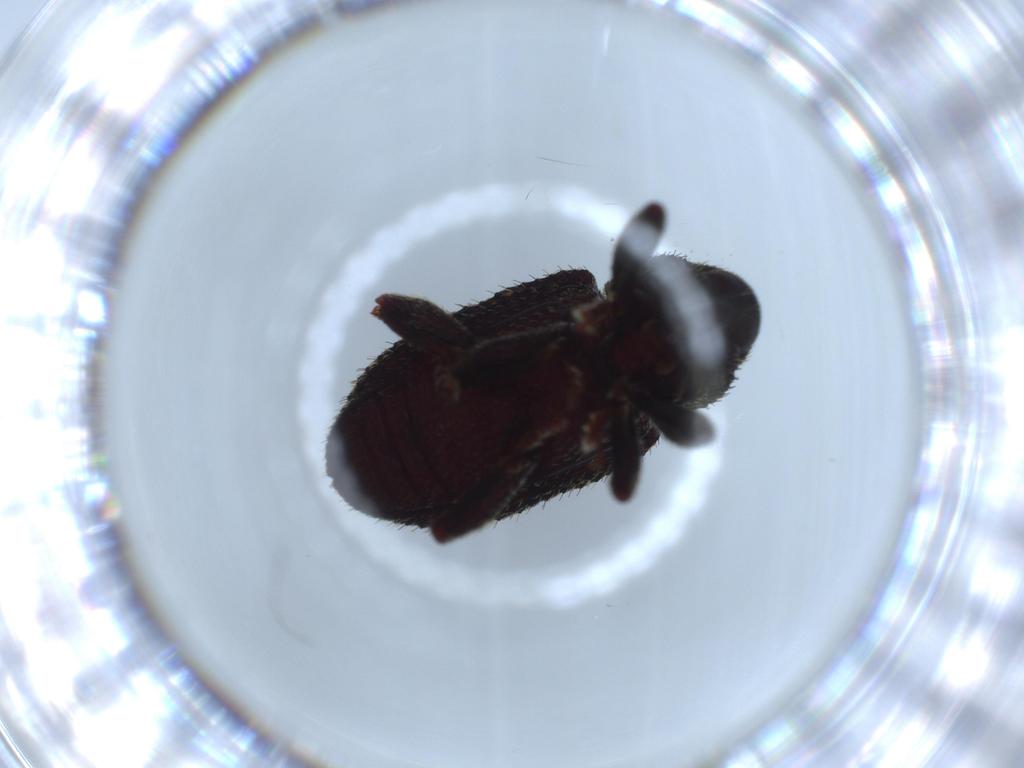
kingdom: Animalia
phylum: Arthropoda
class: Insecta
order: Coleoptera
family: Curculionidae
